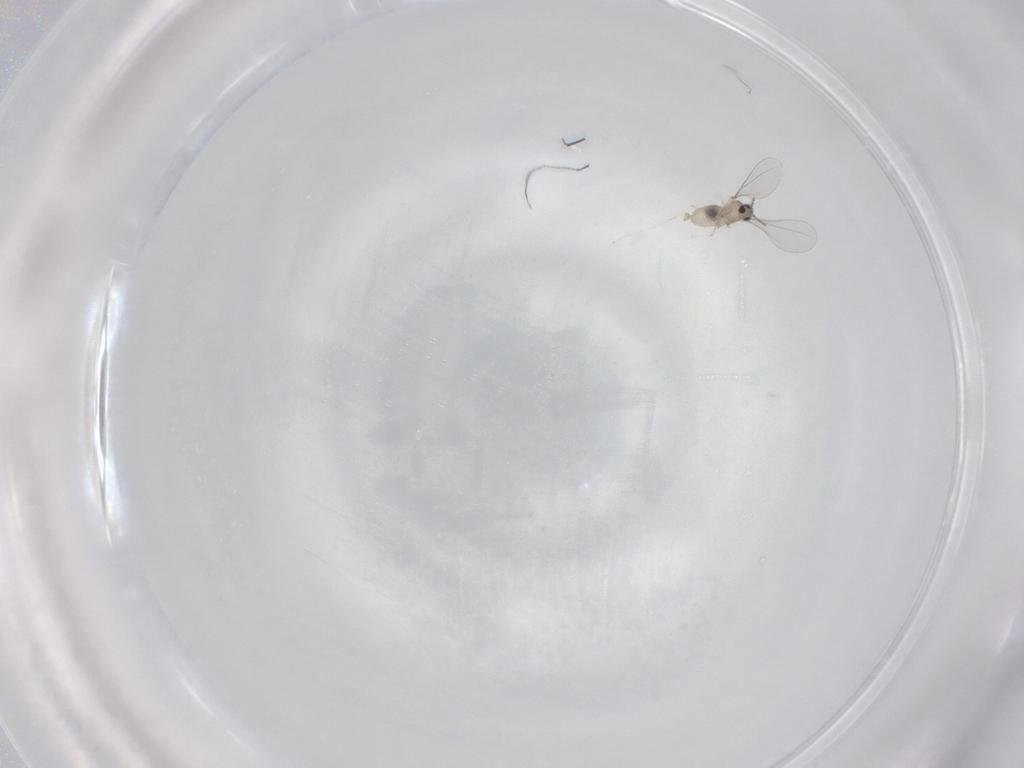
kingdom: Animalia
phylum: Arthropoda
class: Insecta
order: Diptera
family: Cecidomyiidae
